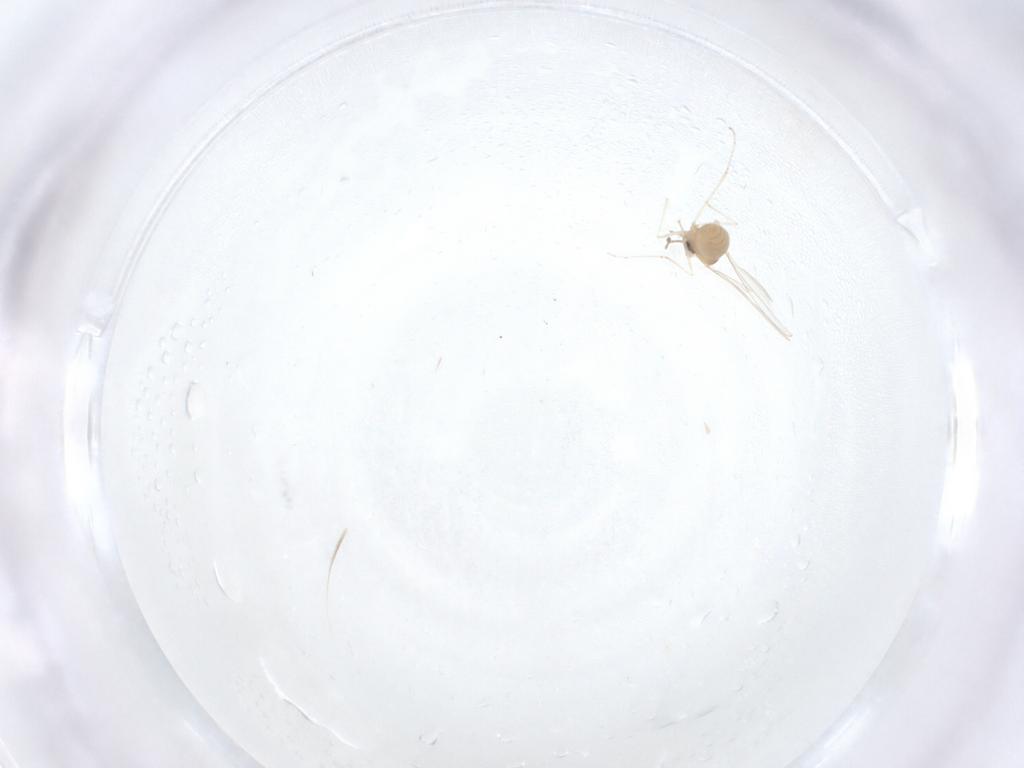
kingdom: Animalia
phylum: Arthropoda
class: Insecta
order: Diptera
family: Cecidomyiidae
